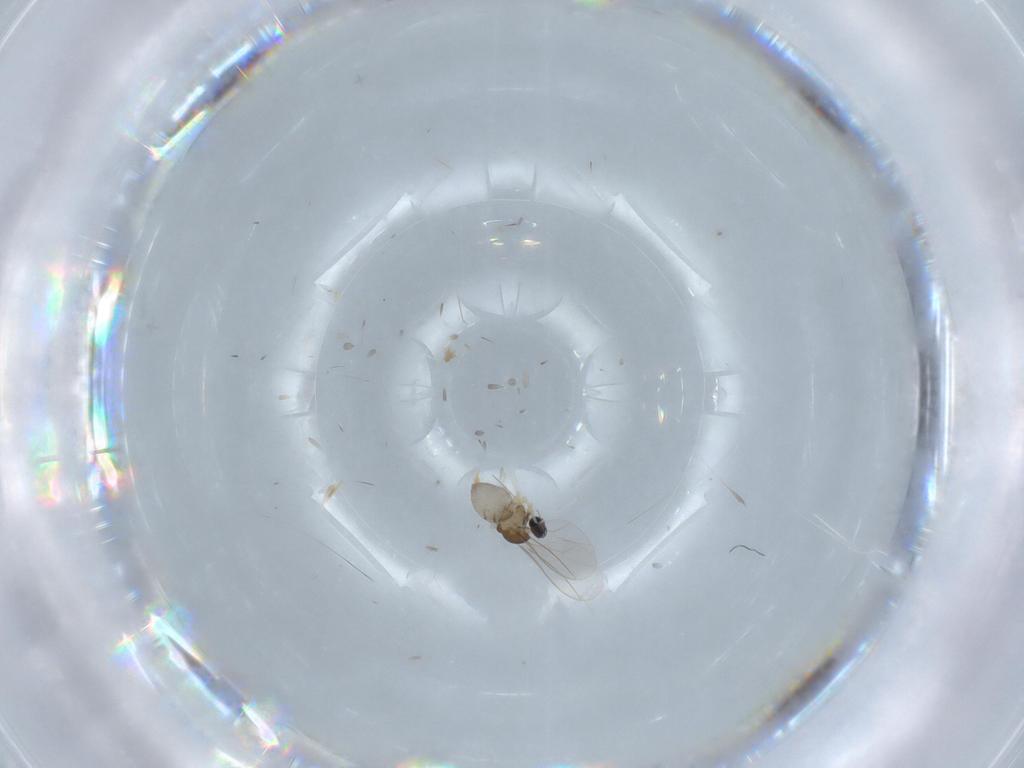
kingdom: Animalia
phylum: Arthropoda
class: Insecta
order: Diptera
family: Cecidomyiidae
